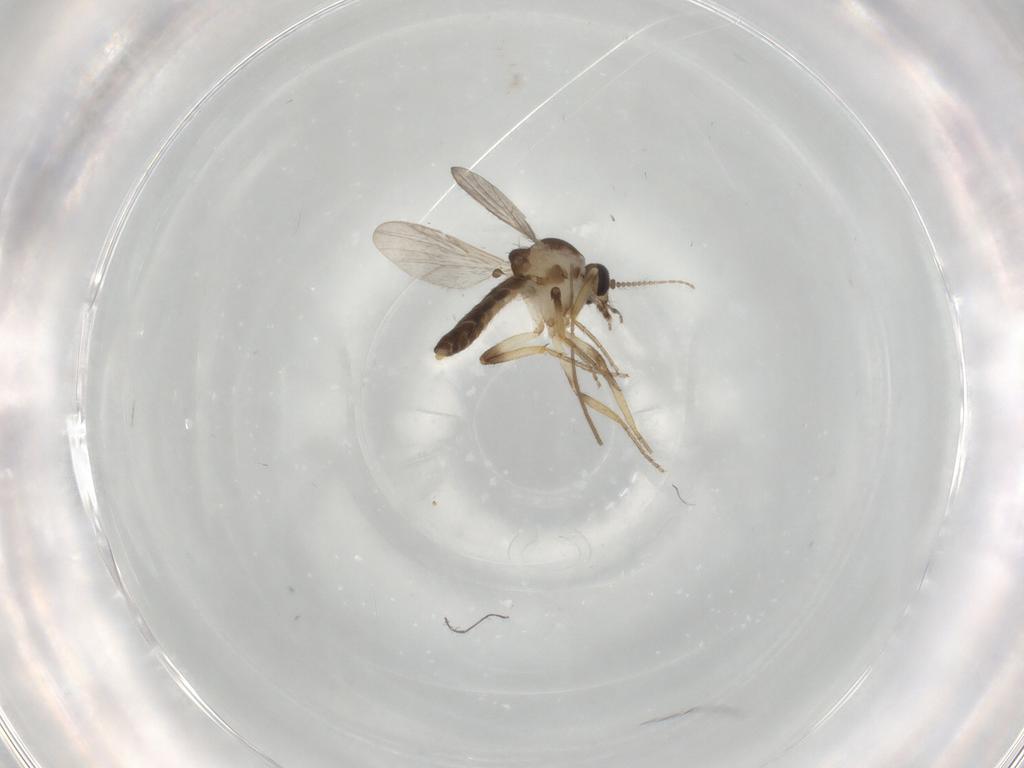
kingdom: Animalia
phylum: Arthropoda
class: Insecta
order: Diptera
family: Ceratopogonidae
